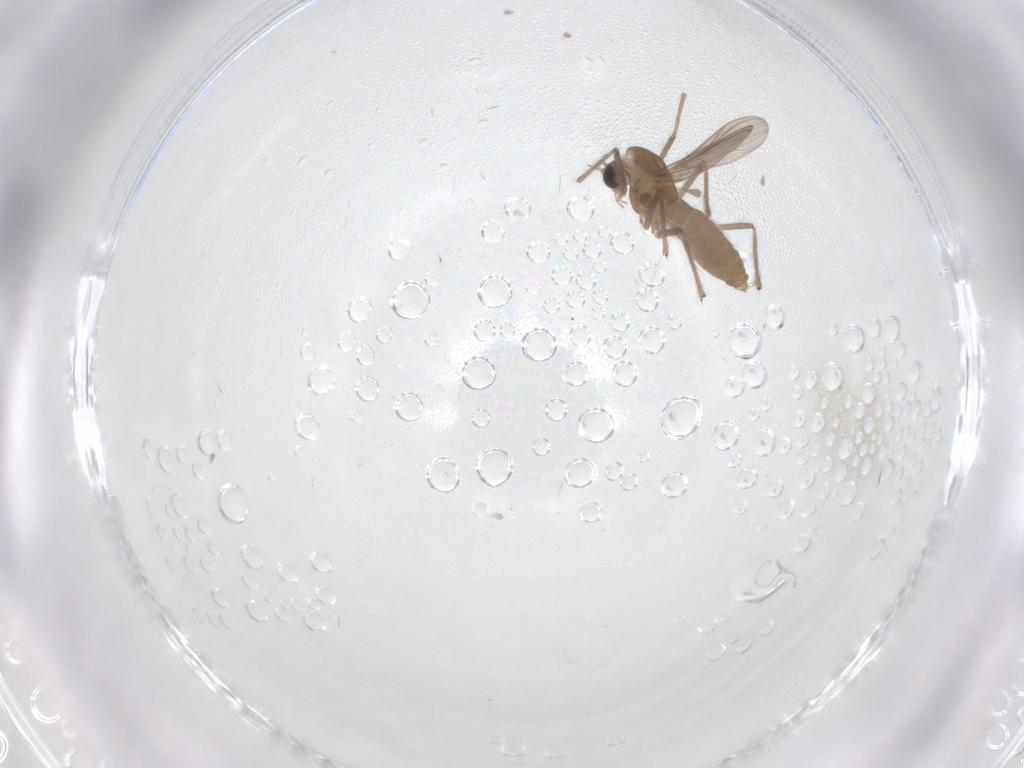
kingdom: Animalia
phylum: Arthropoda
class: Insecta
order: Diptera
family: Chironomidae
